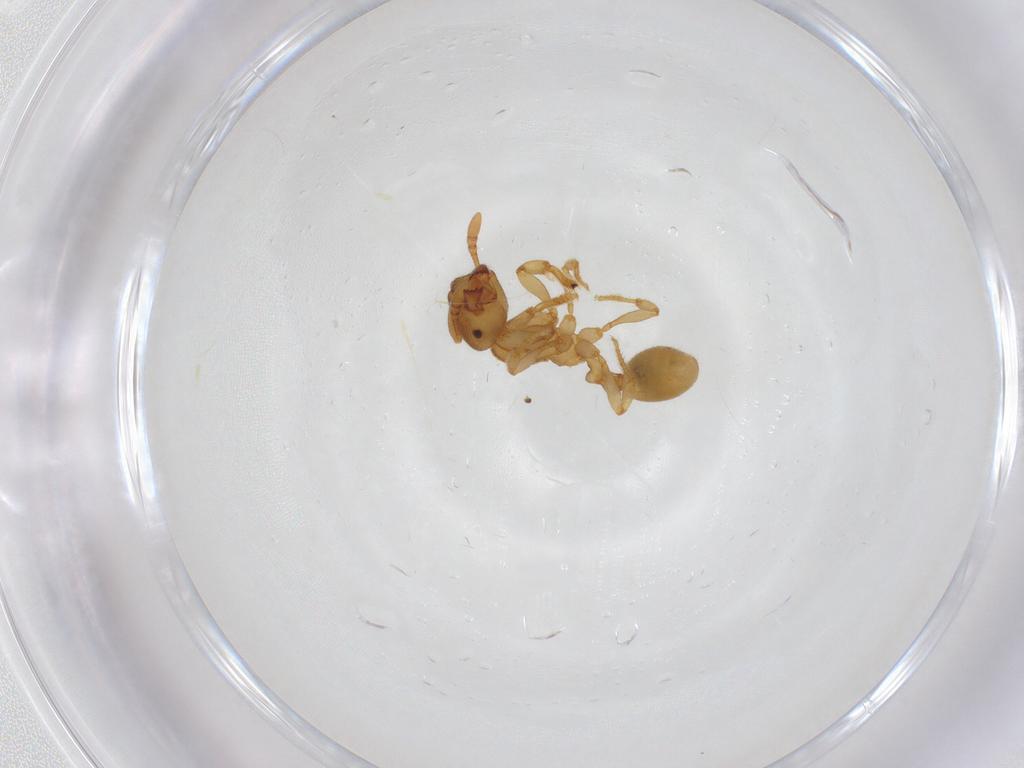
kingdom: Animalia
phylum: Arthropoda
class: Insecta
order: Hymenoptera
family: Formicidae
